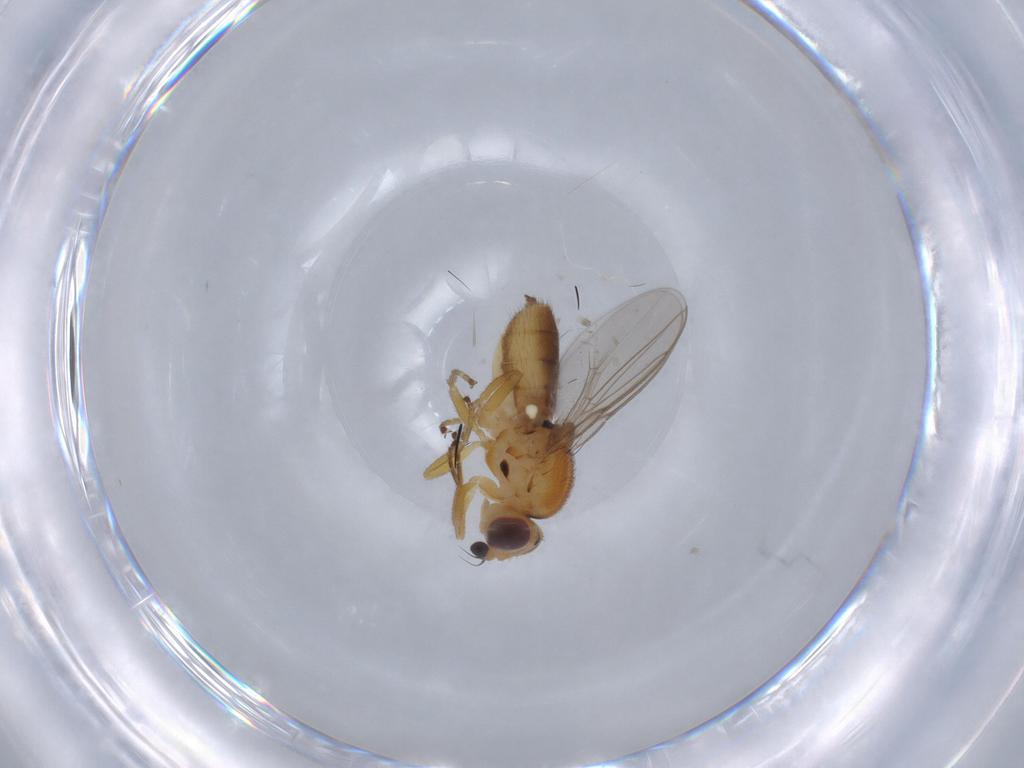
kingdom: Animalia
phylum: Arthropoda
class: Insecta
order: Diptera
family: Chloropidae
